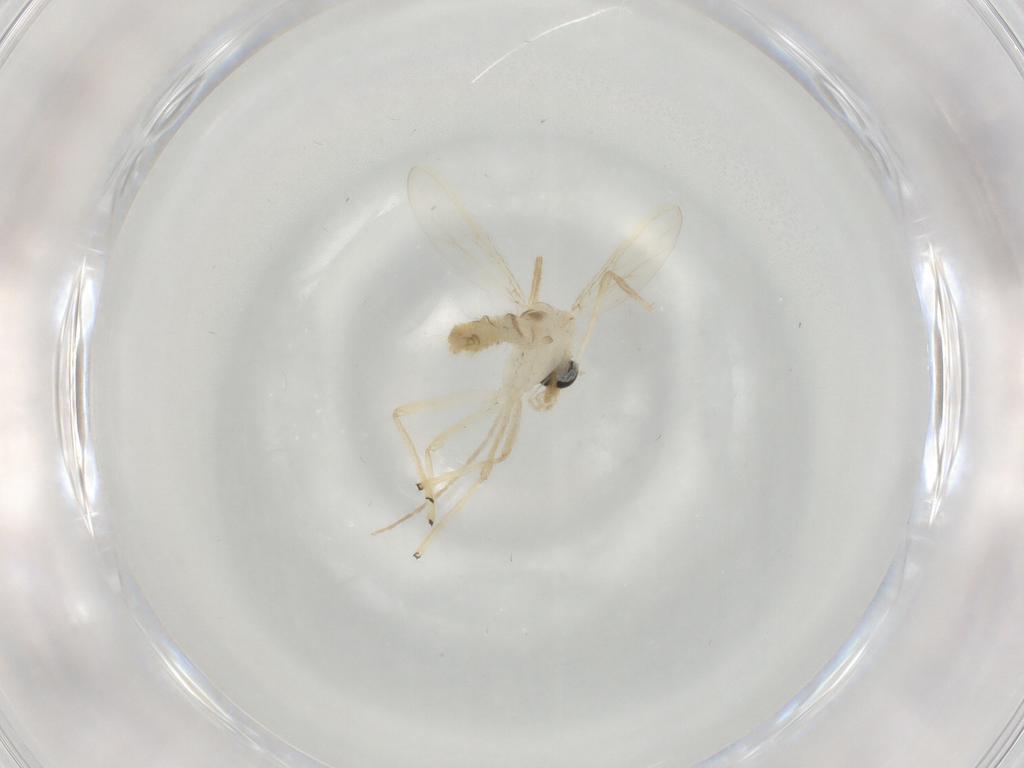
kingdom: Animalia
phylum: Arthropoda
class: Insecta
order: Diptera
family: Chironomidae
